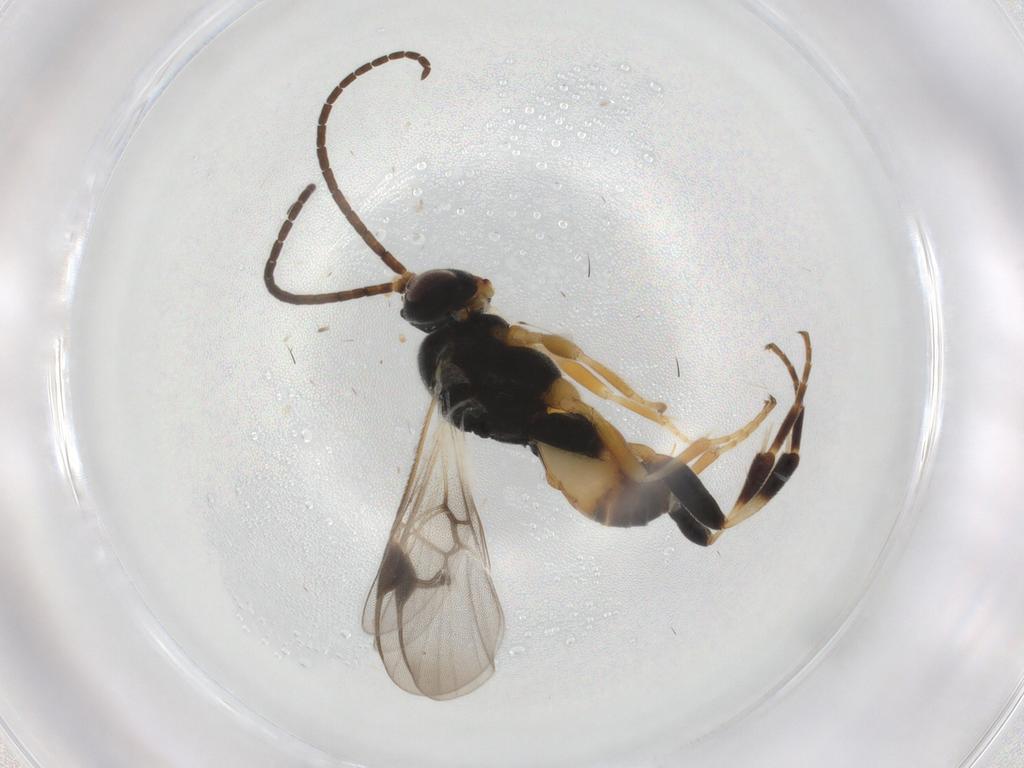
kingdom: Animalia
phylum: Arthropoda
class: Insecta
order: Hymenoptera
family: Braconidae
